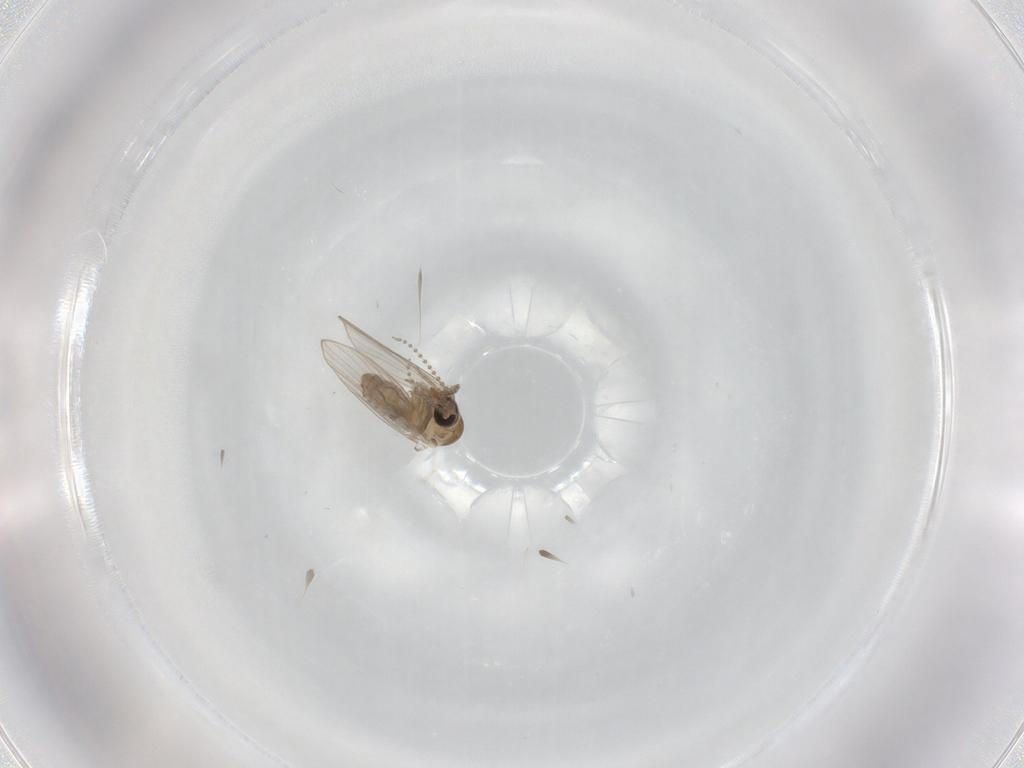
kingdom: Animalia
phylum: Arthropoda
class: Insecta
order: Diptera
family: Psychodidae
